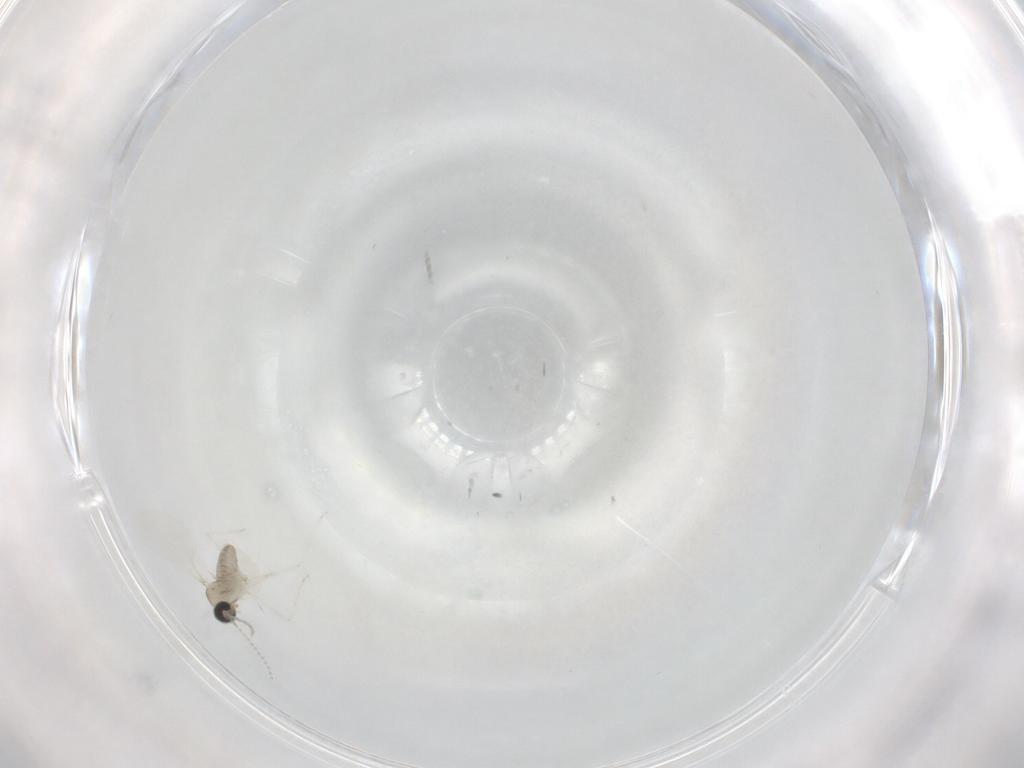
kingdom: Animalia
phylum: Arthropoda
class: Insecta
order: Diptera
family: Cecidomyiidae
